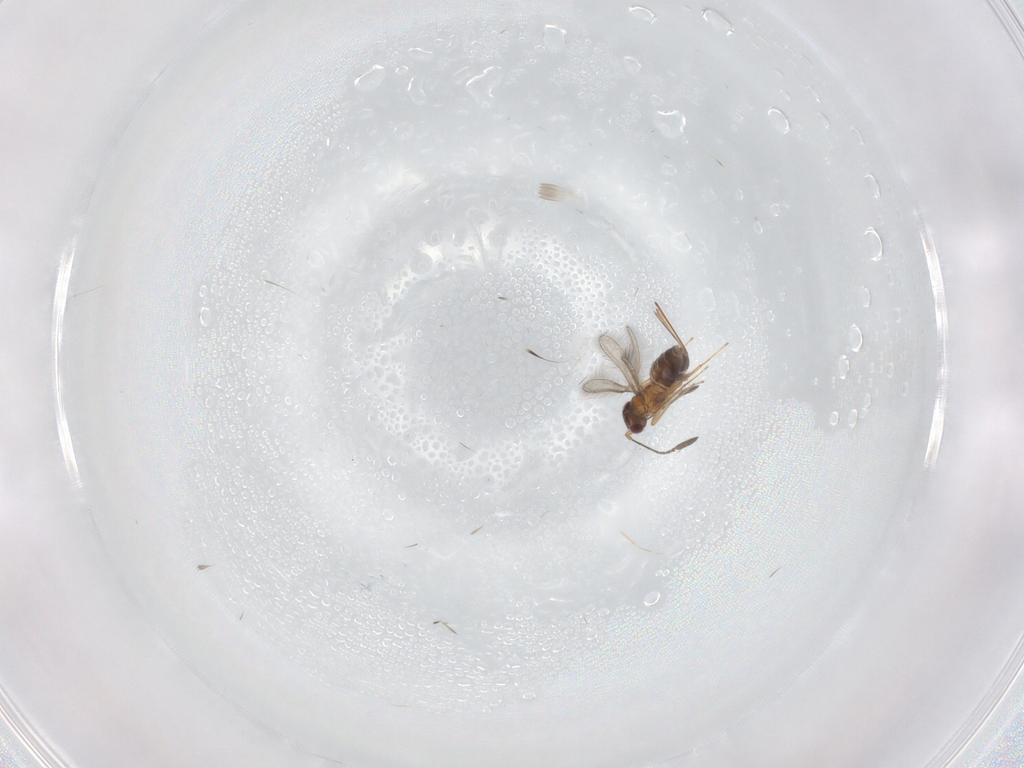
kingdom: Animalia
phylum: Arthropoda
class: Insecta
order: Hymenoptera
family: Mymaridae
